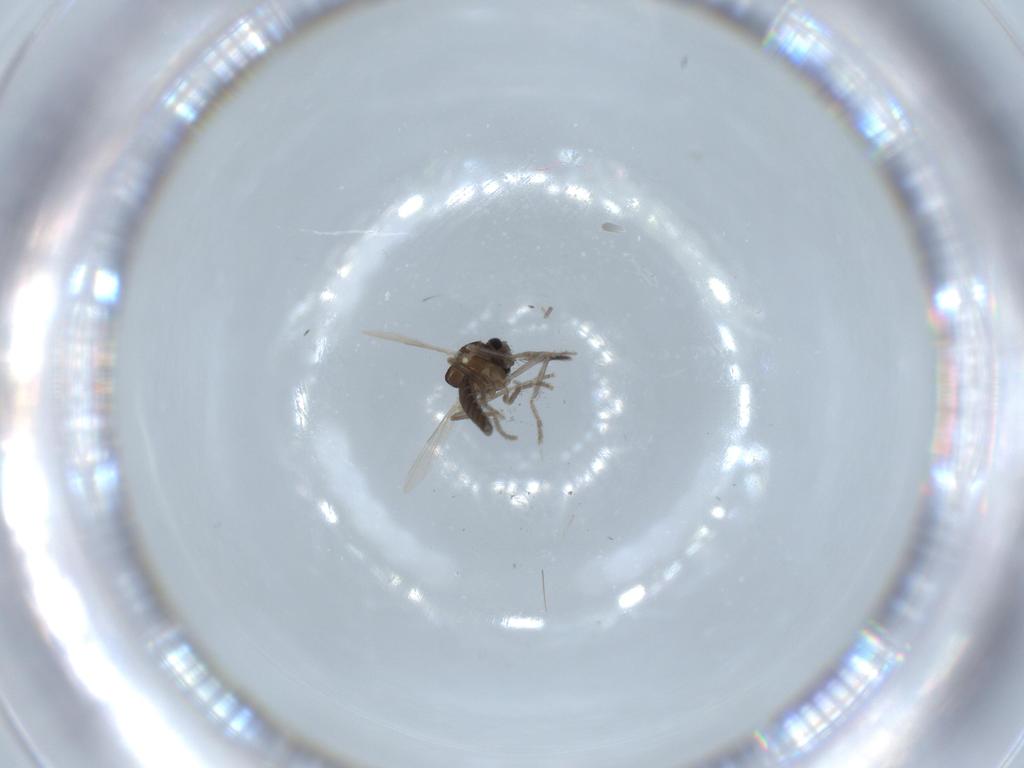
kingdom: Animalia
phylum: Arthropoda
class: Insecta
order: Diptera
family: Ceratopogonidae
